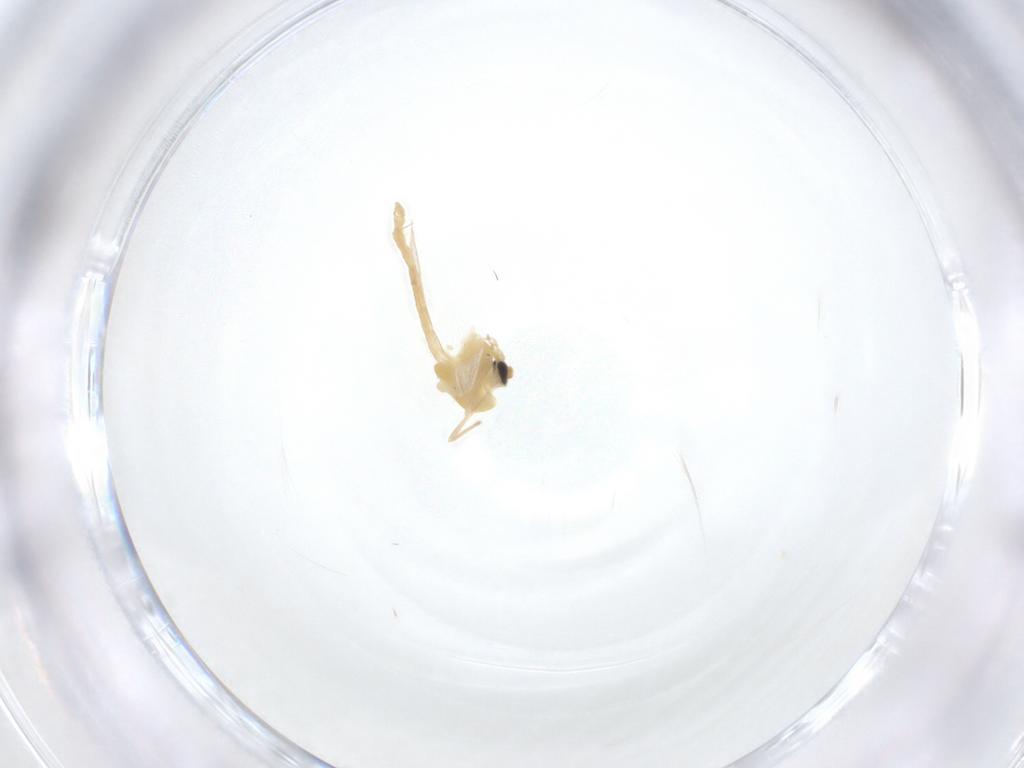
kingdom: Animalia
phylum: Arthropoda
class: Insecta
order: Diptera
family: Chironomidae
